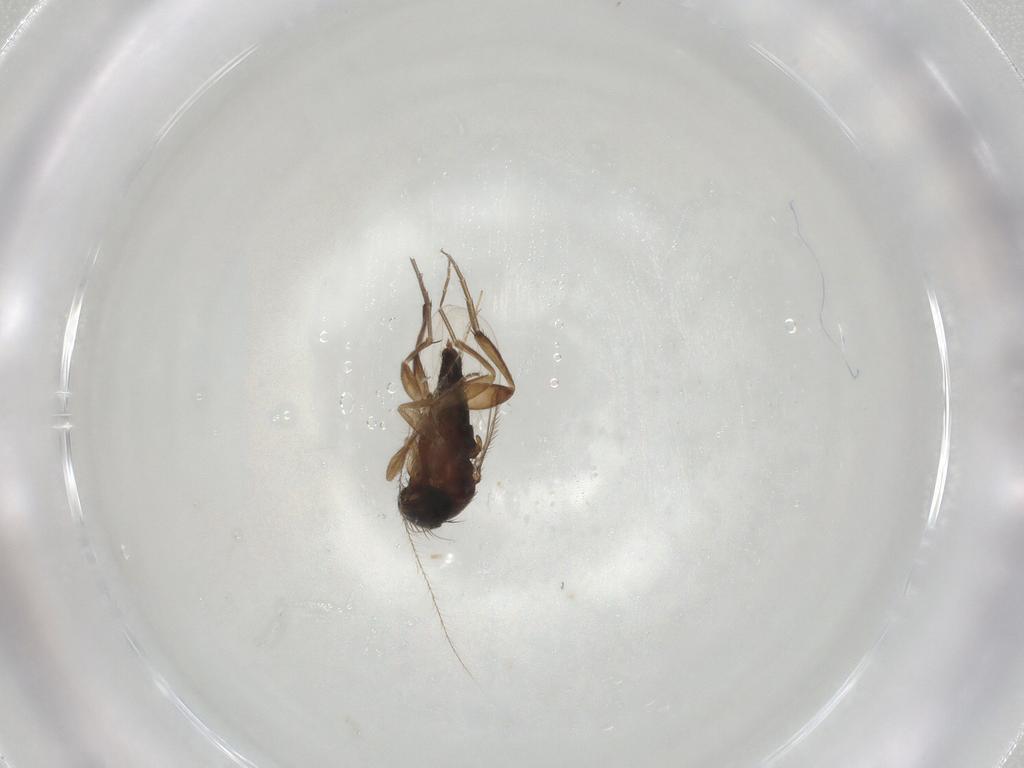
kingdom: Animalia
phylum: Arthropoda
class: Insecta
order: Diptera
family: Phoridae
